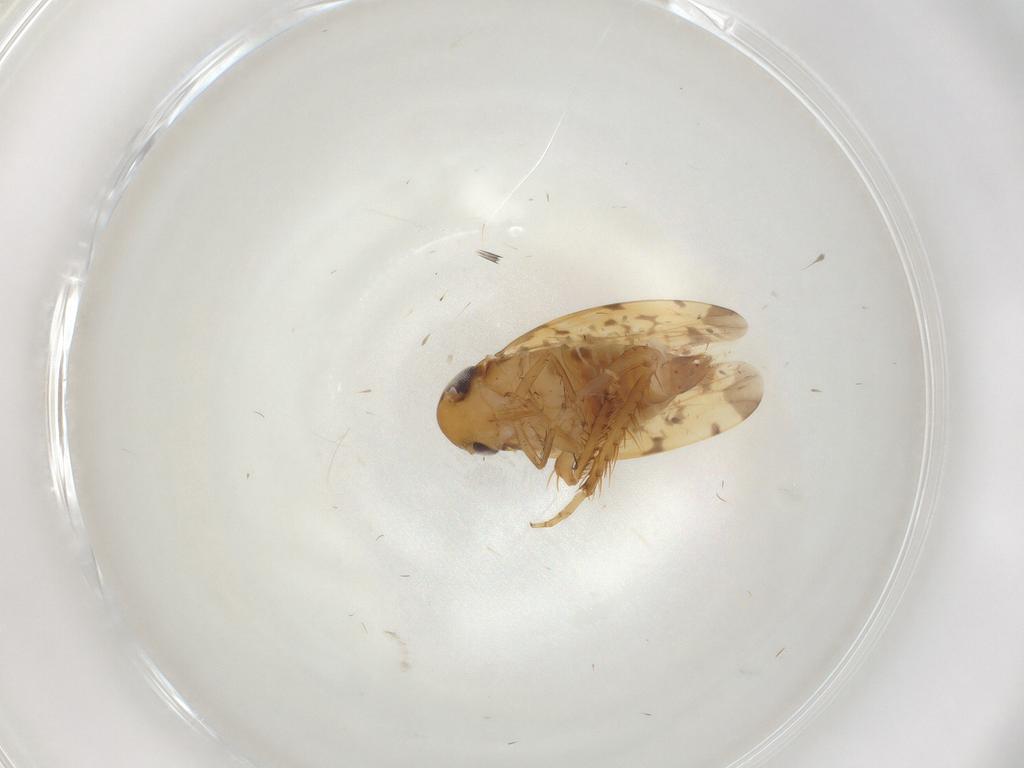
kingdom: Animalia
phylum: Arthropoda
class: Insecta
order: Hemiptera
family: Cicadellidae
